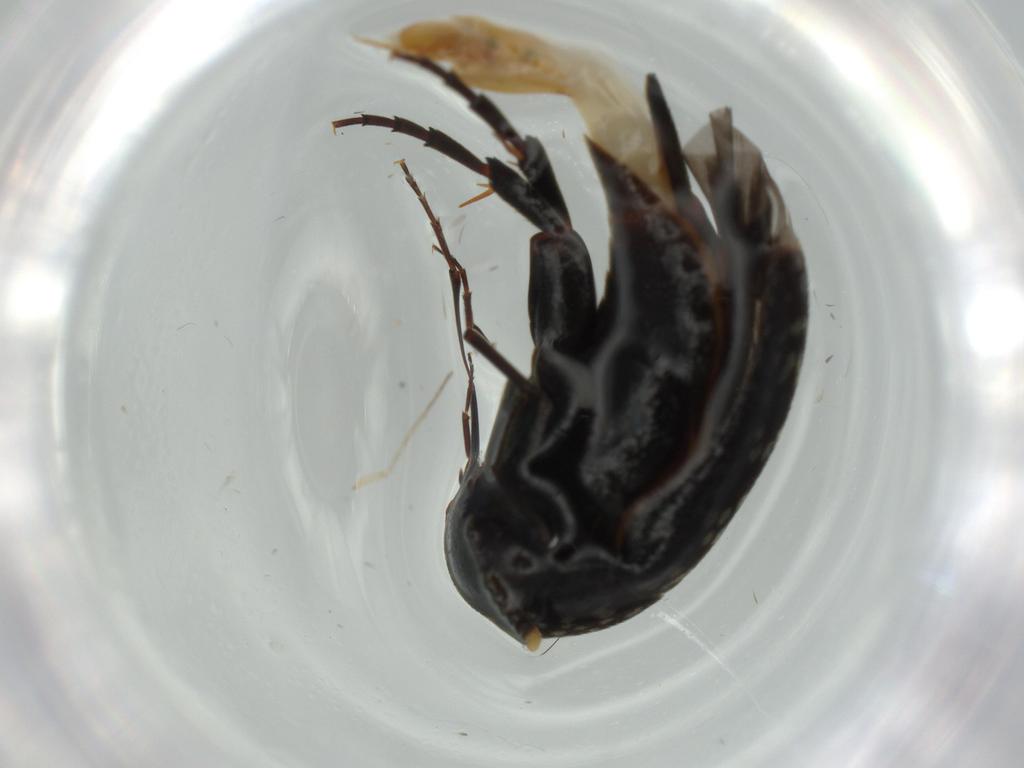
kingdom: Animalia
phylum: Arthropoda
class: Insecta
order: Coleoptera
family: Mordellidae
